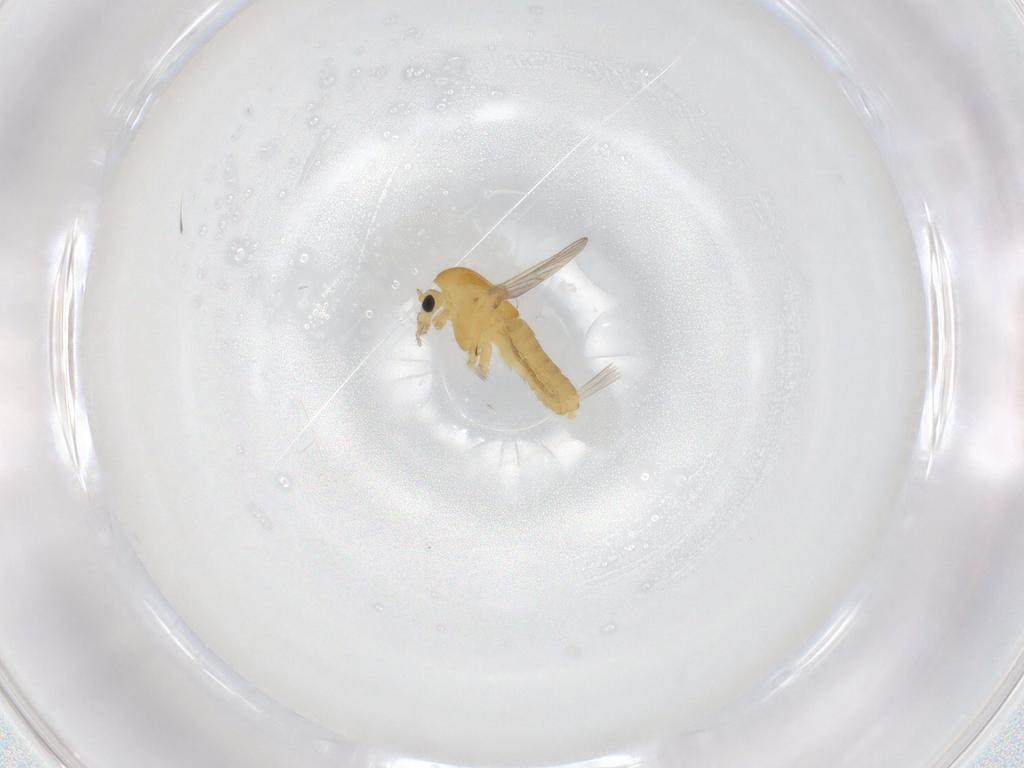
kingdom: Animalia
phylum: Arthropoda
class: Insecta
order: Diptera
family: Chironomidae
